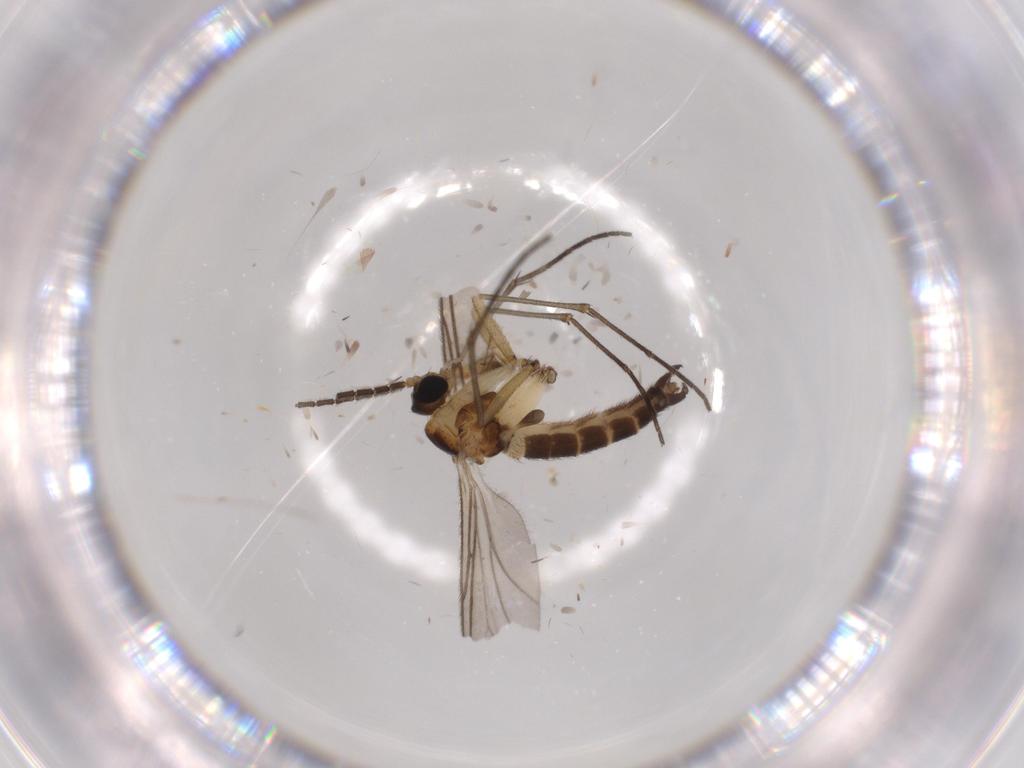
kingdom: Animalia
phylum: Arthropoda
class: Insecta
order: Diptera
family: Sciaridae
